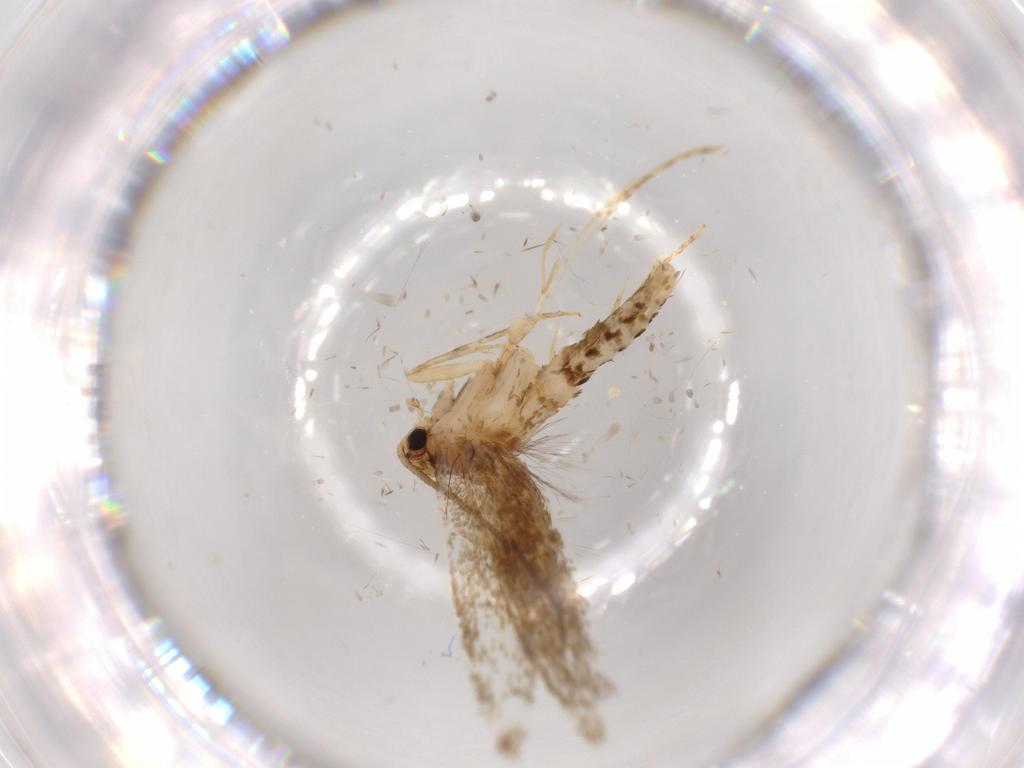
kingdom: Animalia
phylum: Arthropoda
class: Insecta
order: Lepidoptera
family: Tineidae
